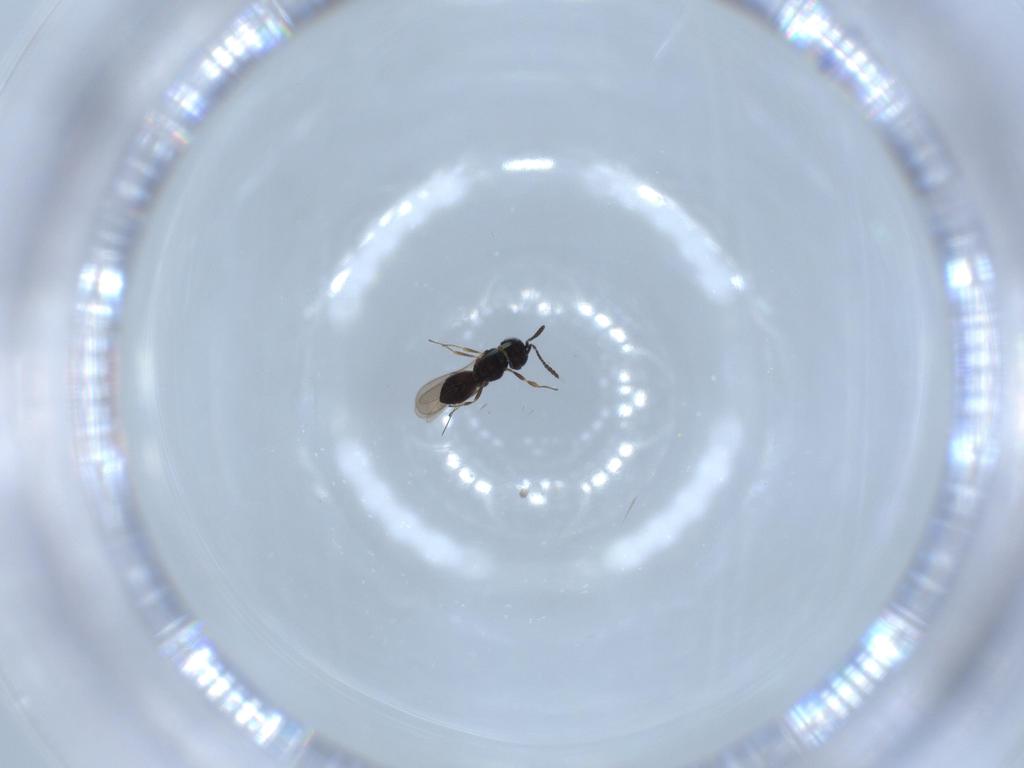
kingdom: Animalia
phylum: Arthropoda
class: Insecta
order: Hymenoptera
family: Scelionidae
